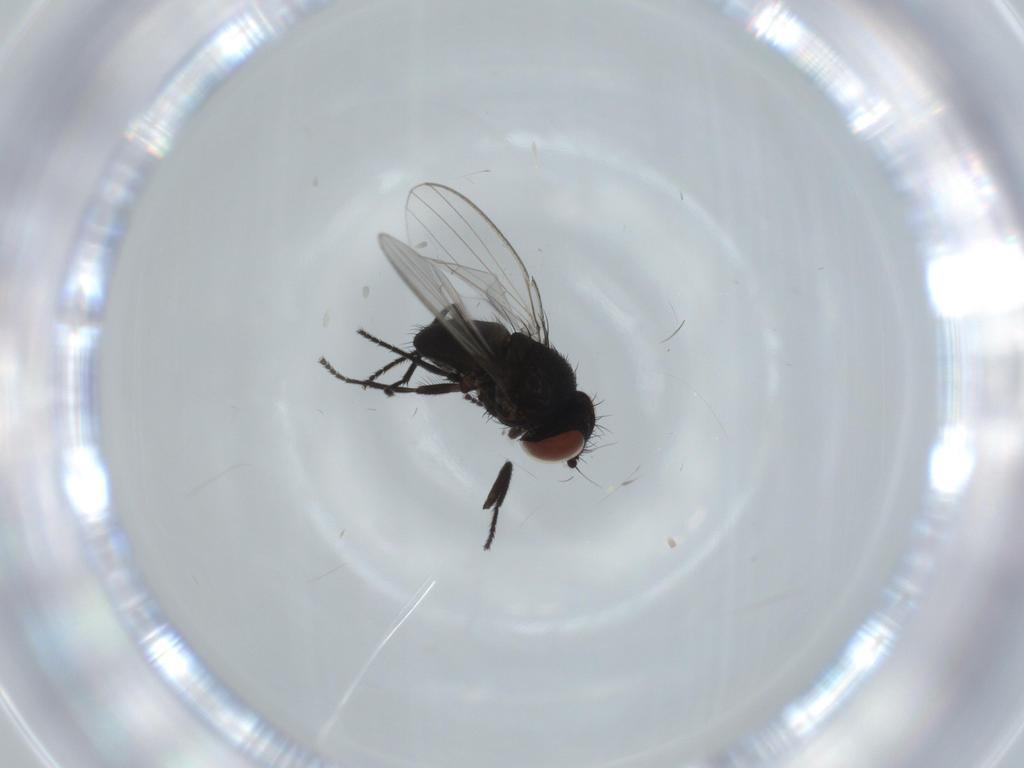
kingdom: Animalia
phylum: Arthropoda
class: Insecta
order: Diptera
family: Milichiidae
